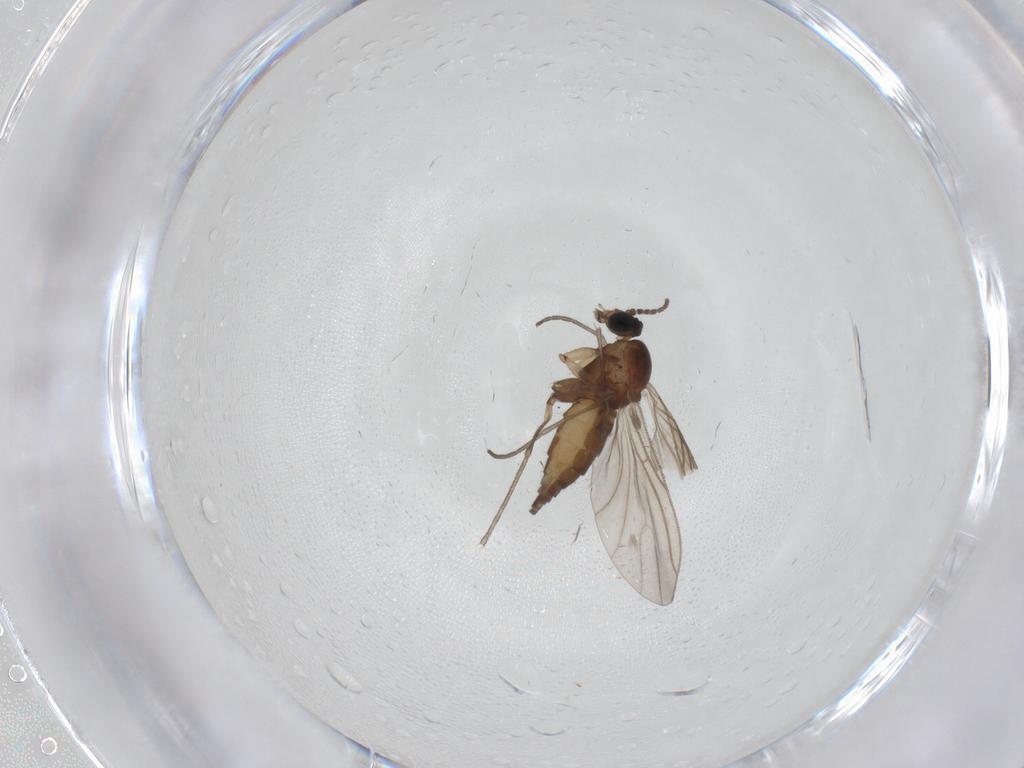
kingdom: Animalia
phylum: Arthropoda
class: Insecta
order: Diptera
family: Sciaridae
